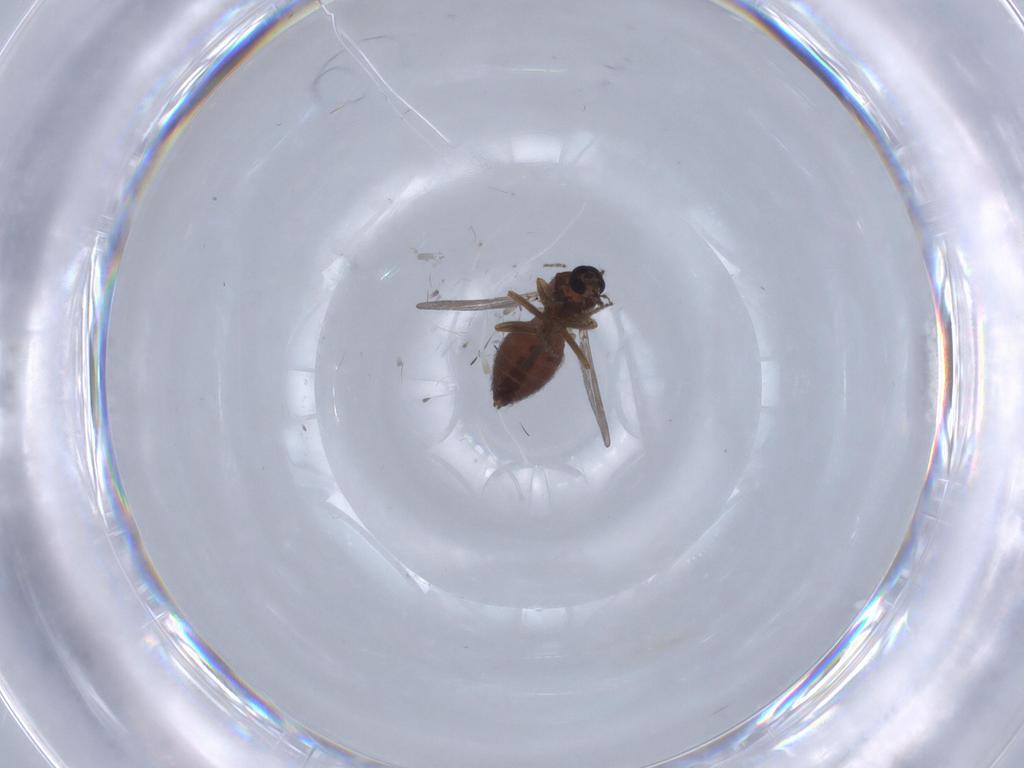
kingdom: Animalia
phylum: Arthropoda
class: Insecta
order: Diptera
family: Ceratopogonidae
